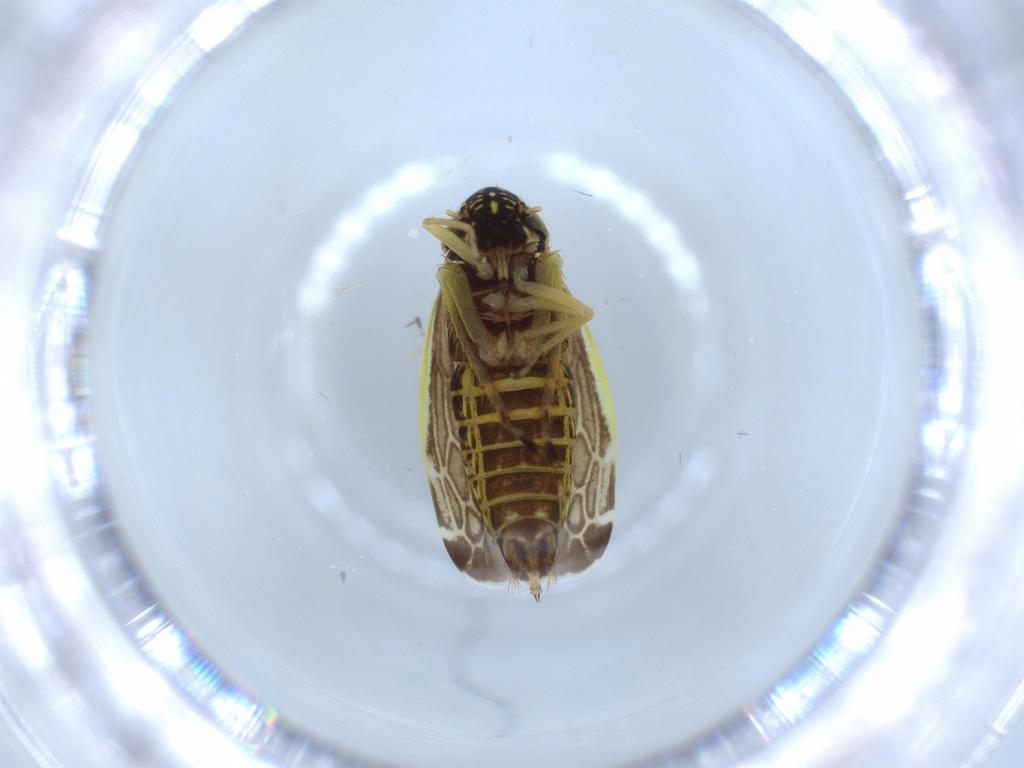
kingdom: Animalia
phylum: Arthropoda
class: Insecta
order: Hemiptera
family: Cicadellidae
